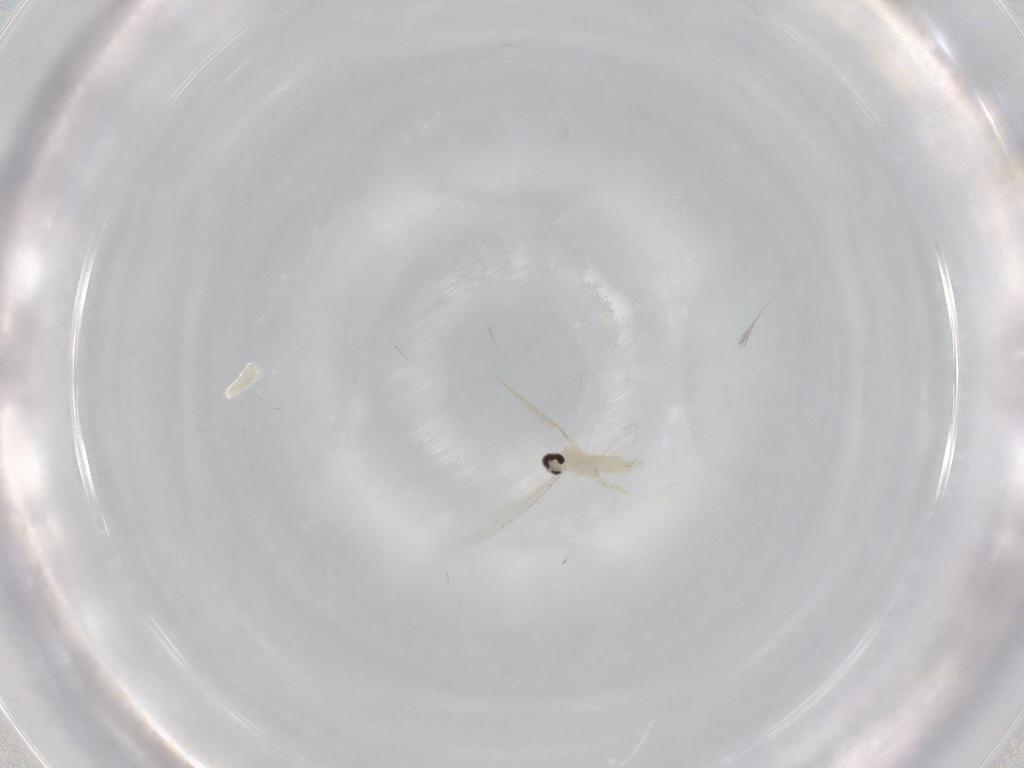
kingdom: Animalia
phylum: Arthropoda
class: Insecta
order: Diptera
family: Cecidomyiidae
